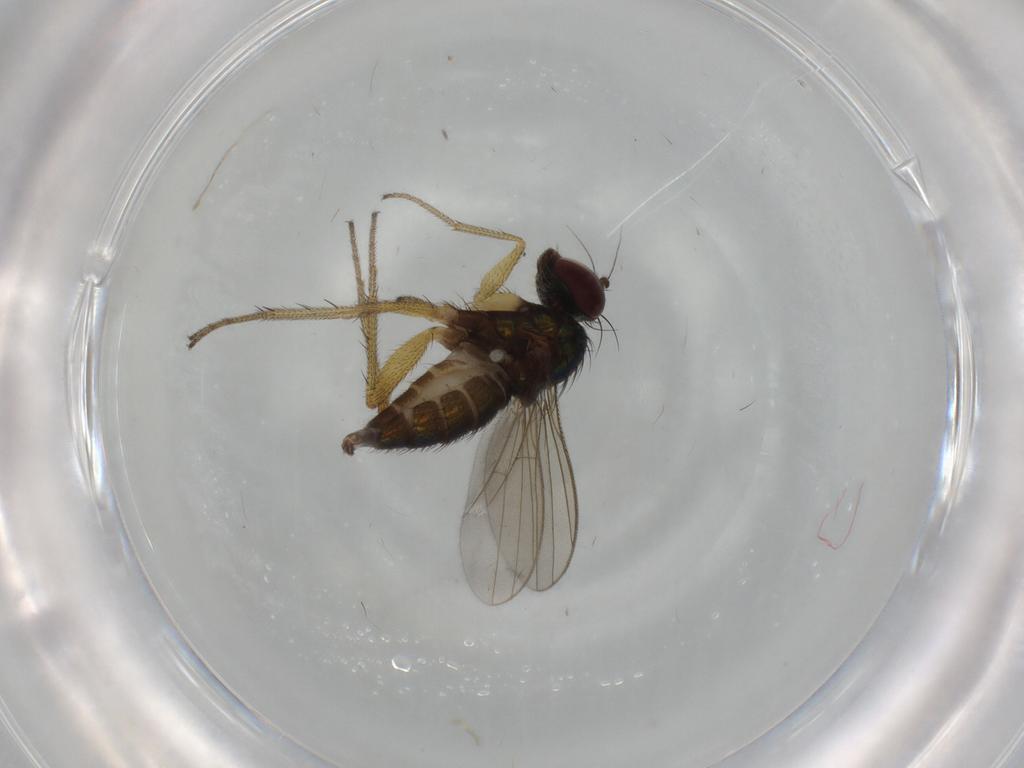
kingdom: Animalia
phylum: Arthropoda
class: Insecta
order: Diptera
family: Dolichopodidae
